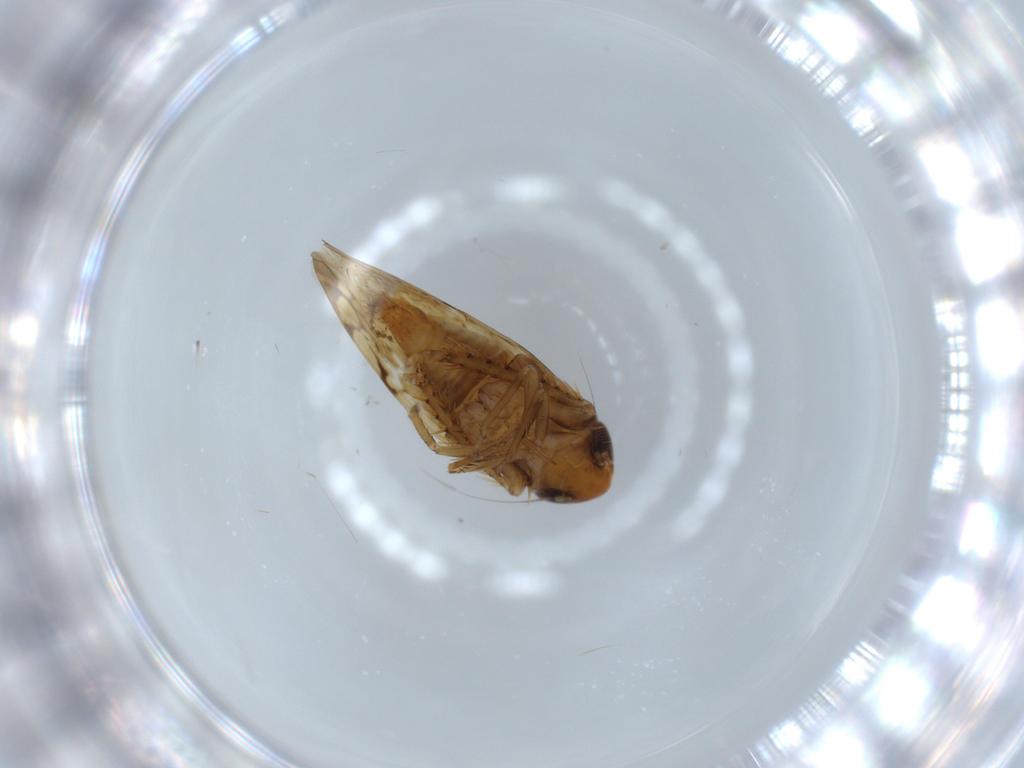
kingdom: Animalia
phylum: Arthropoda
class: Insecta
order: Hemiptera
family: Cicadellidae
